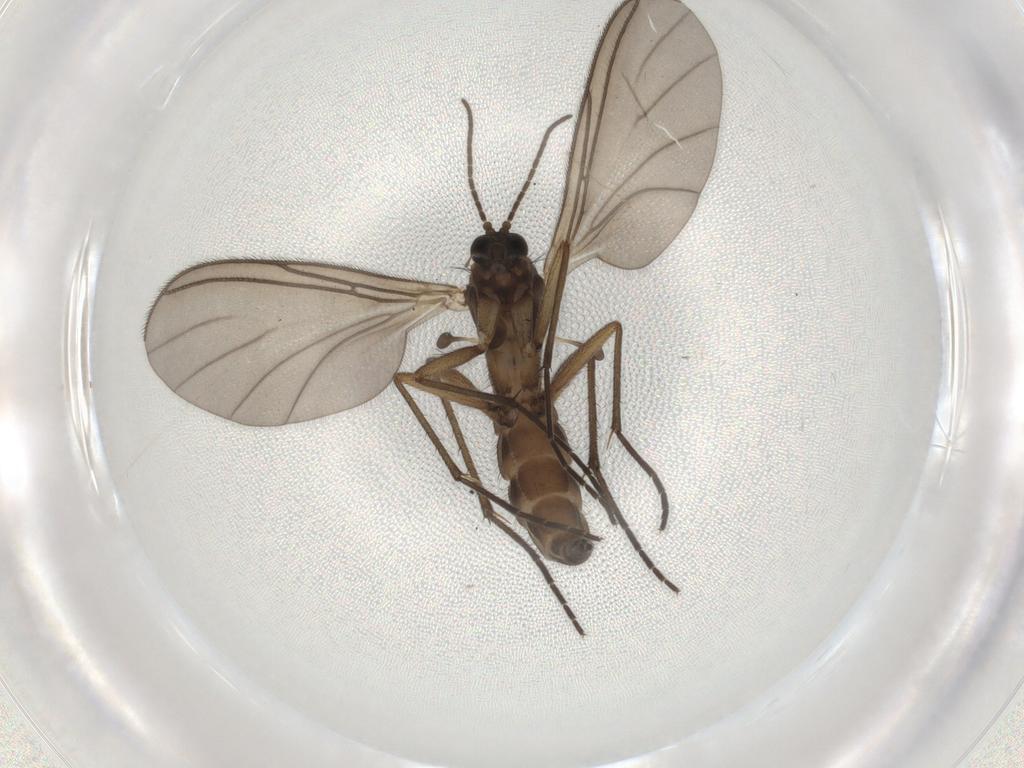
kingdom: Animalia
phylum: Arthropoda
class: Insecta
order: Diptera
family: Sciaridae
